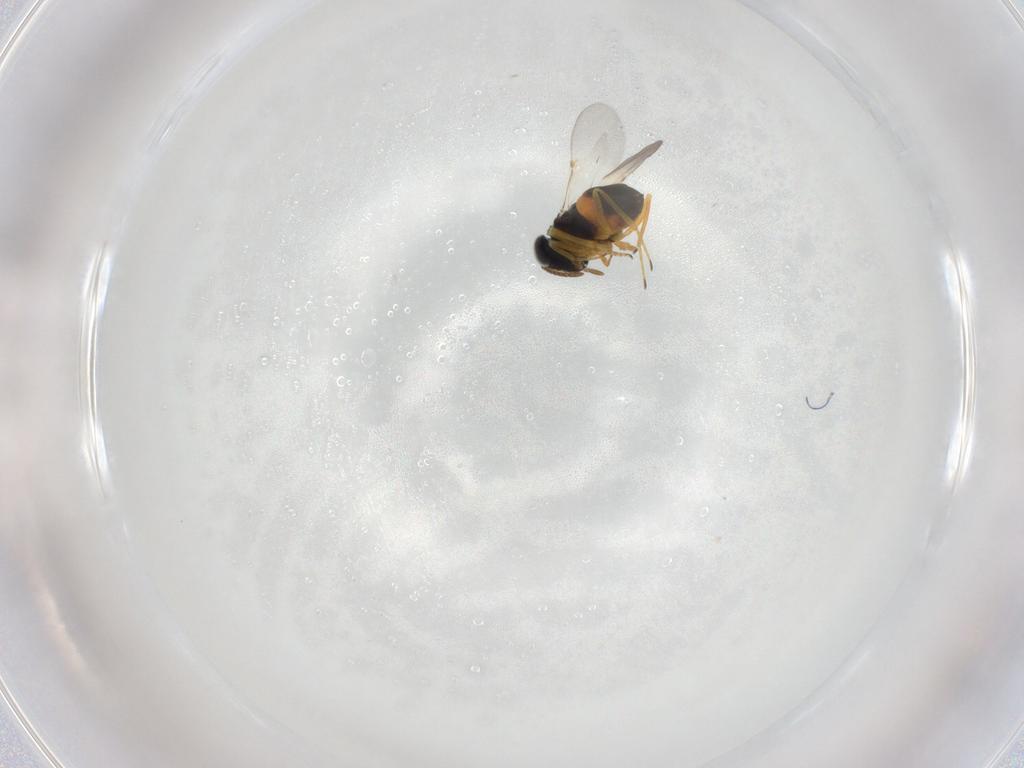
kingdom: Animalia
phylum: Arthropoda
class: Insecta
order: Hymenoptera
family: Encyrtidae
